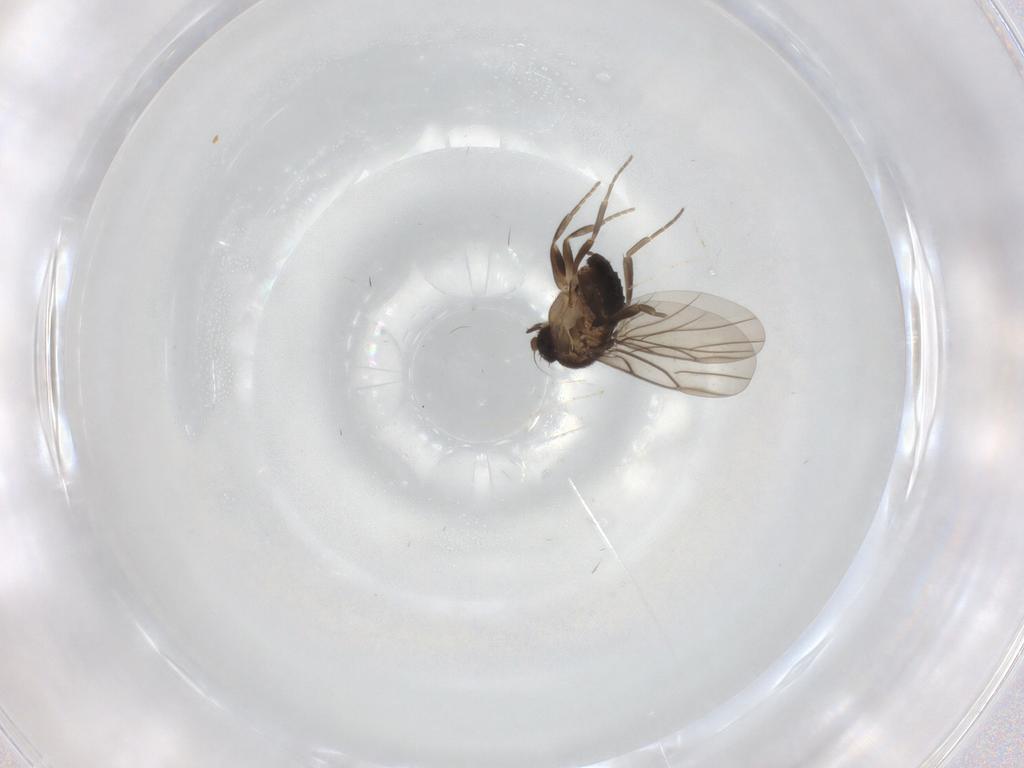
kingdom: Animalia
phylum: Arthropoda
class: Insecta
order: Diptera
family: Phoridae
